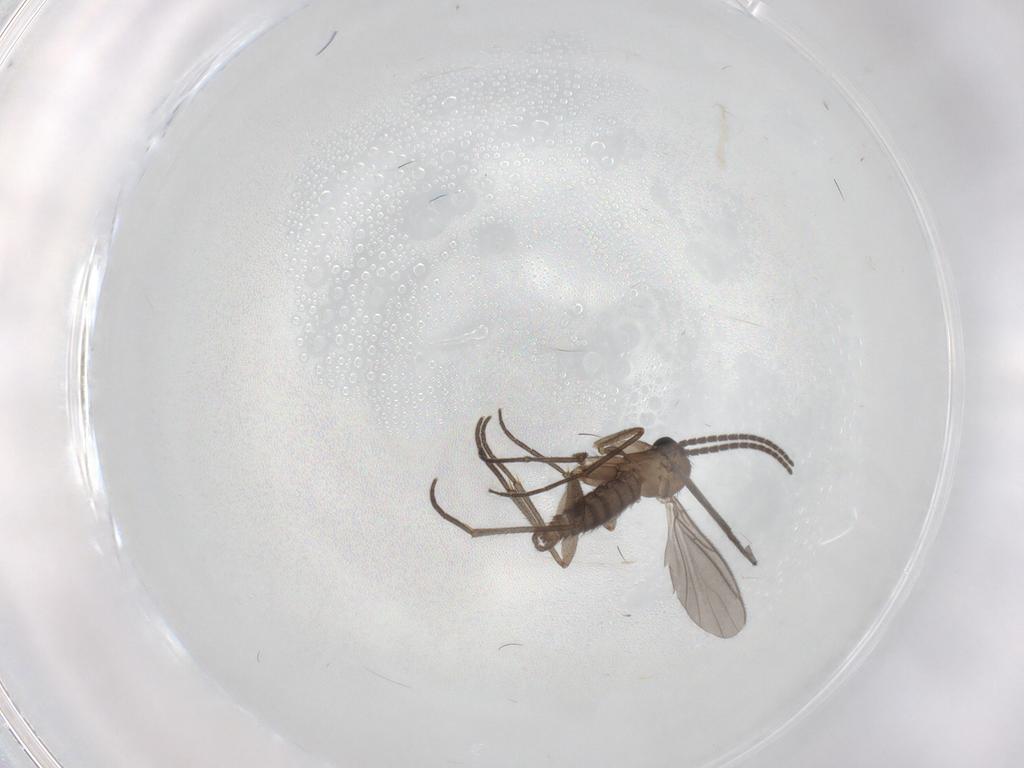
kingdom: Animalia
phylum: Arthropoda
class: Insecta
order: Diptera
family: Sciaridae
